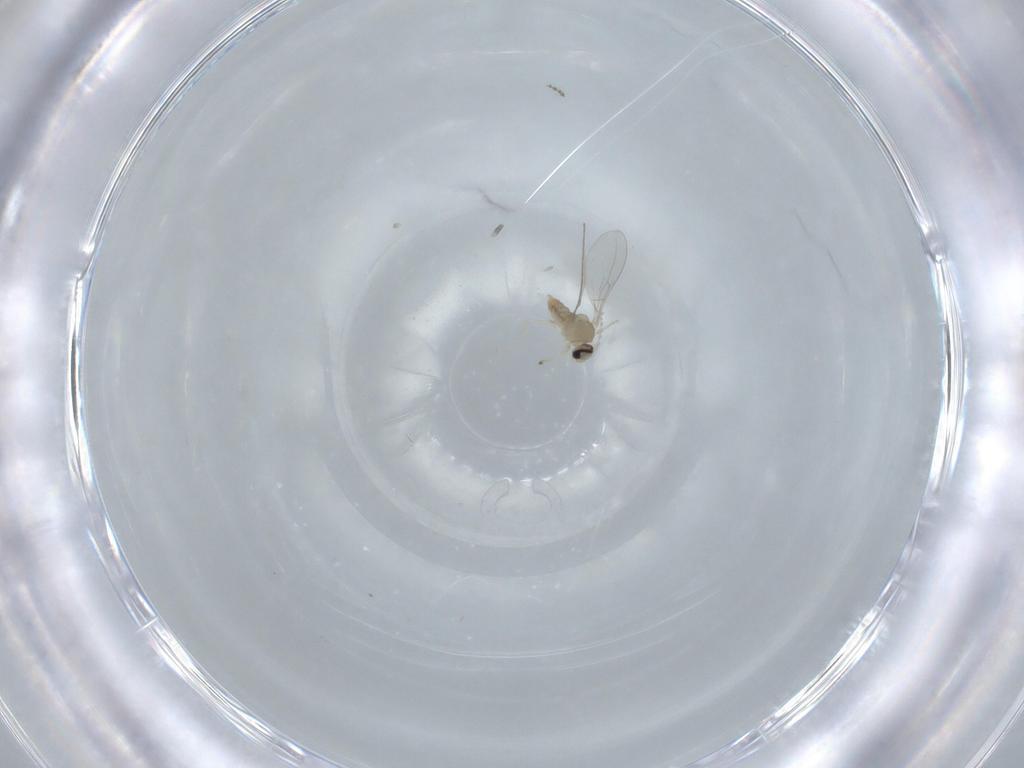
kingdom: Animalia
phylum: Arthropoda
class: Insecta
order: Diptera
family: Cecidomyiidae
